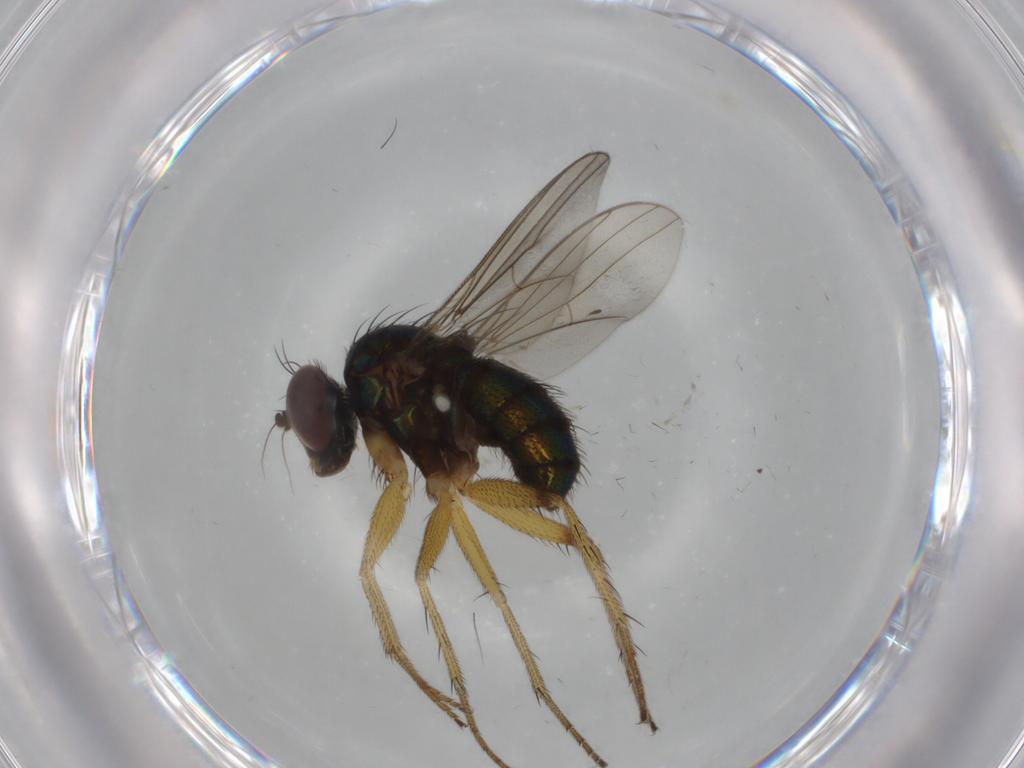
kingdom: Animalia
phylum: Arthropoda
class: Insecta
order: Diptera
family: Dolichopodidae
